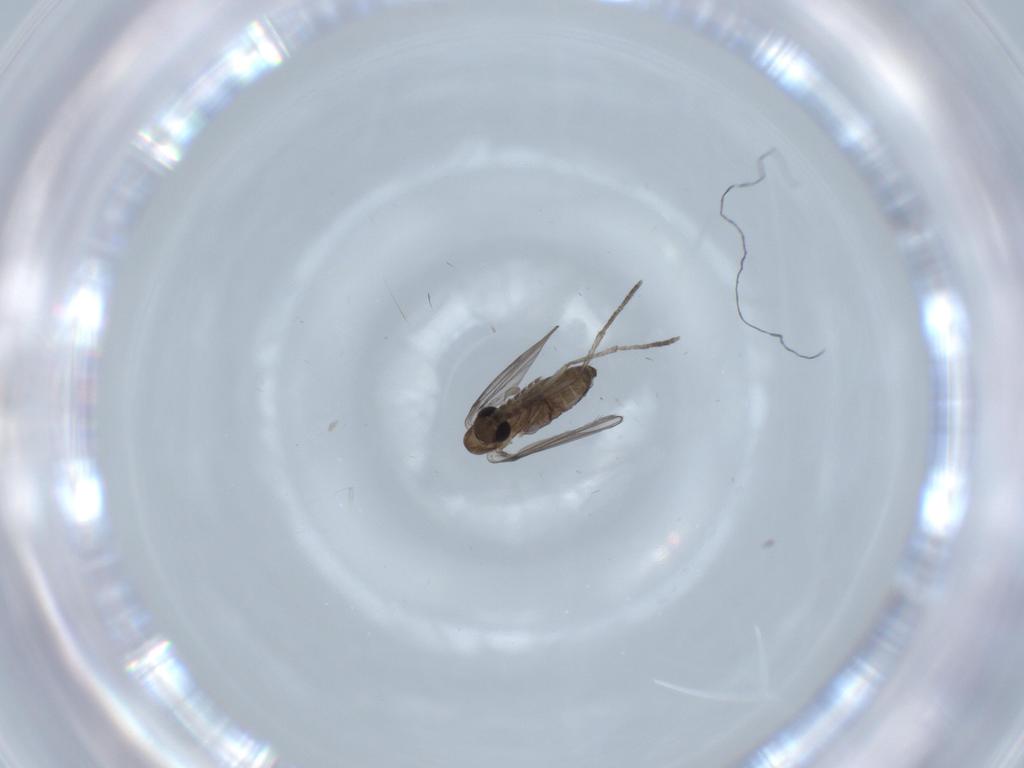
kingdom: Animalia
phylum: Arthropoda
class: Insecta
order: Diptera
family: Psychodidae
